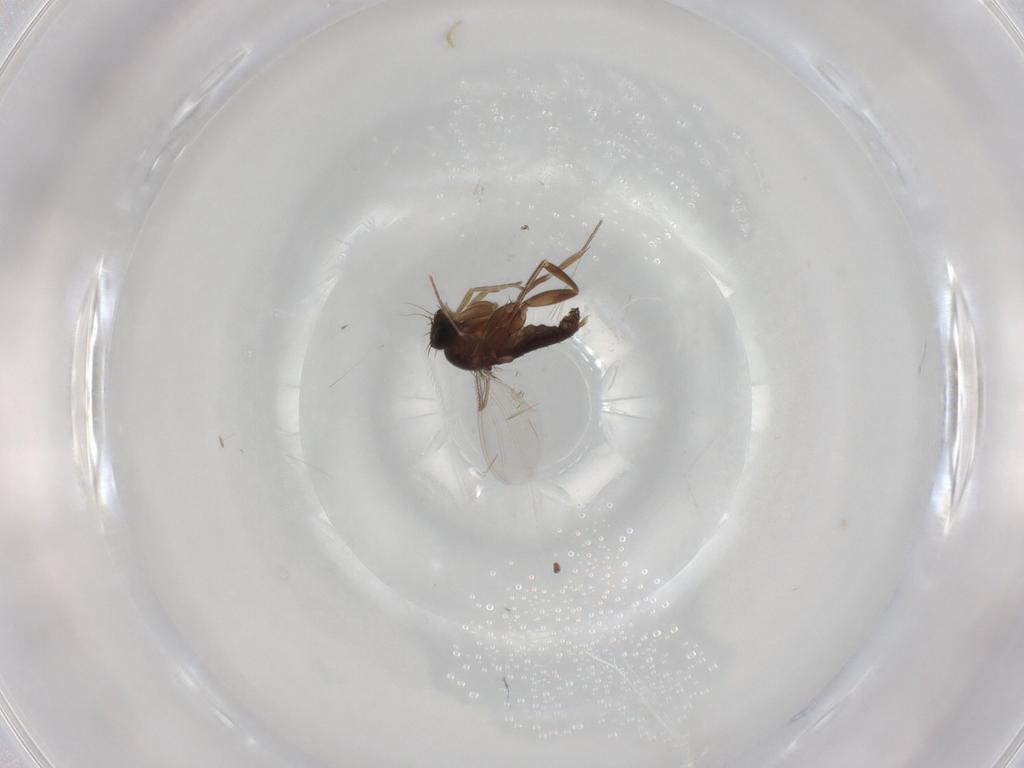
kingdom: Animalia
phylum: Arthropoda
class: Insecta
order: Diptera
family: Phoridae
